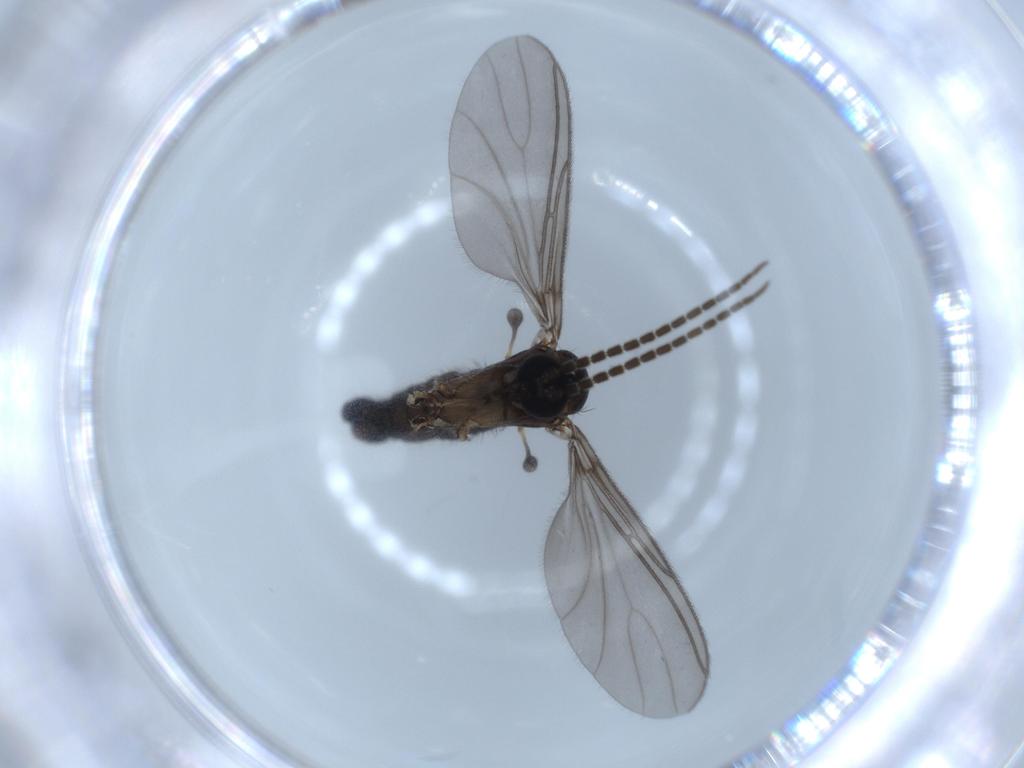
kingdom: Animalia
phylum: Arthropoda
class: Insecta
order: Diptera
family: Sciaridae
